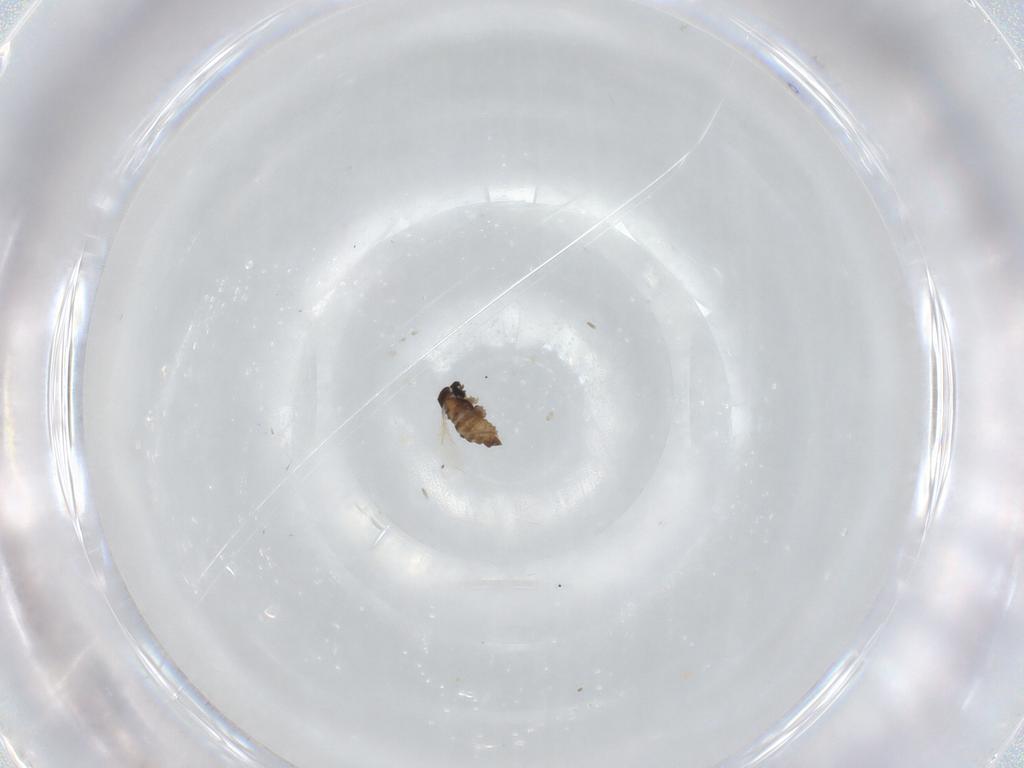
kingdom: Animalia
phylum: Arthropoda
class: Insecta
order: Diptera
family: Cecidomyiidae
